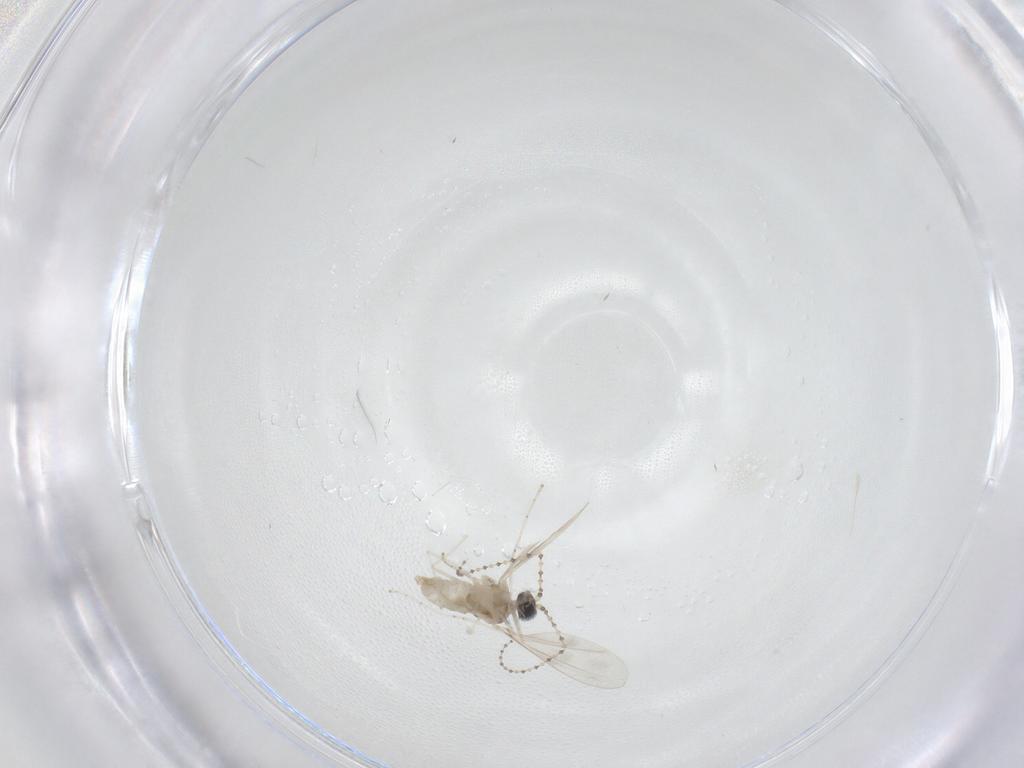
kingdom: Animalia
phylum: Arthropoda
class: Insecta
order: Diptera
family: Cecidomyiidae
